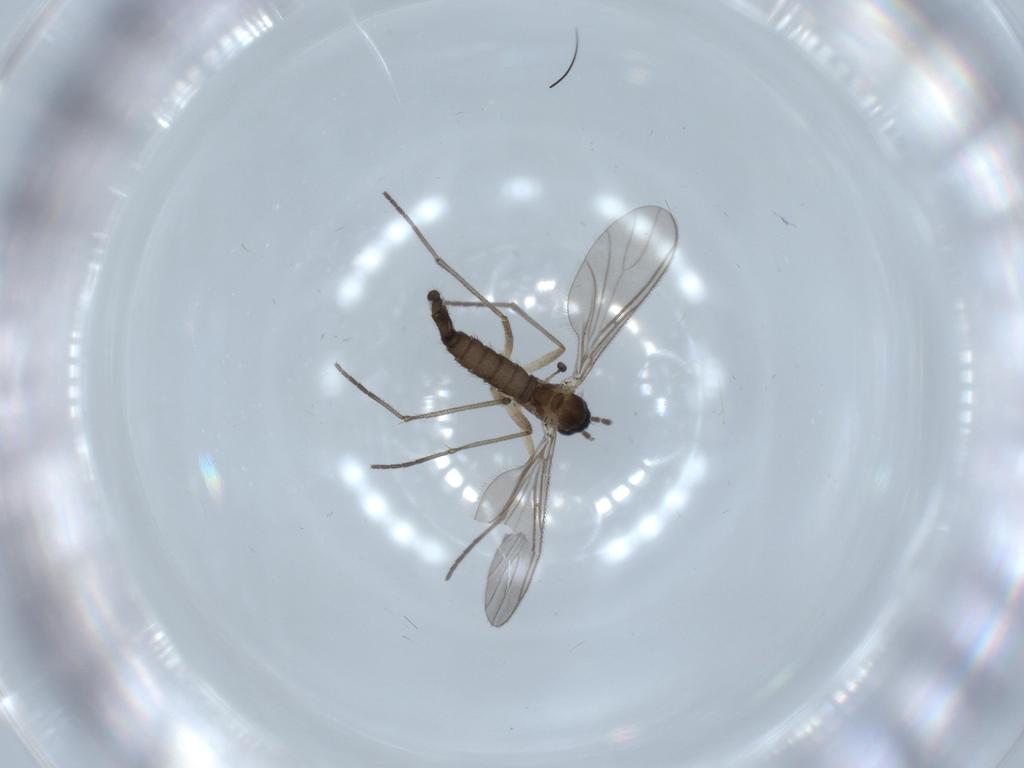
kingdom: Animalia
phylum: Arthropoda
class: Insecta
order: Diptera
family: Sciaridae
